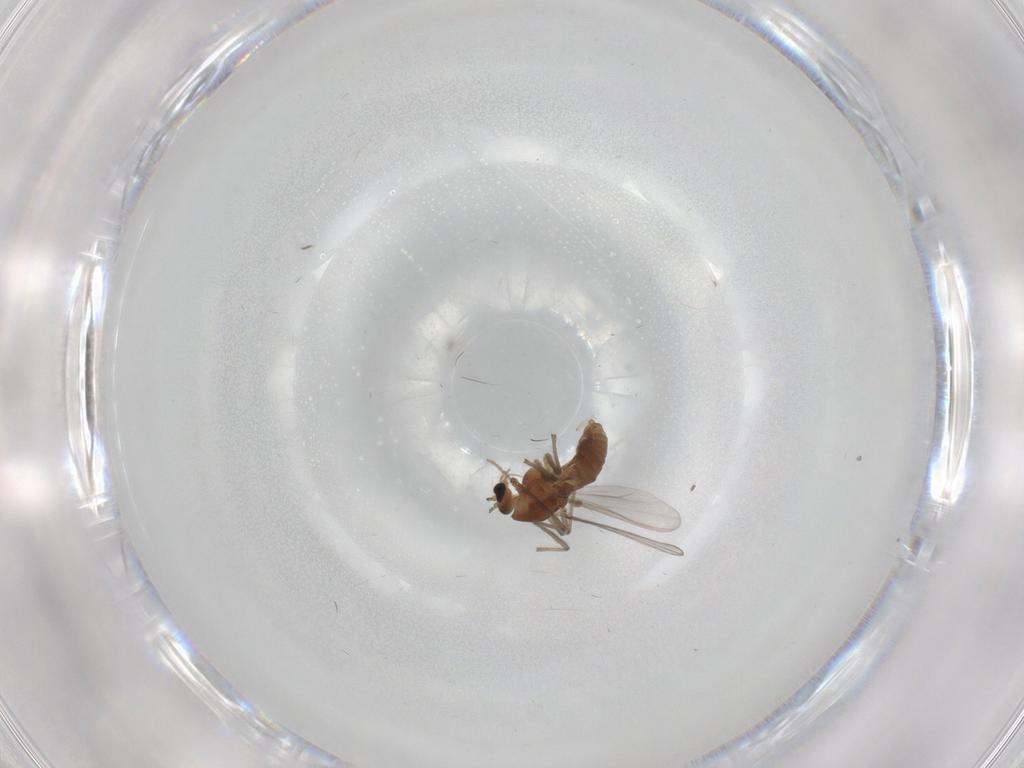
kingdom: Animalia
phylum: Arthropoda
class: Insecta
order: Diptera
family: Chironomidae
